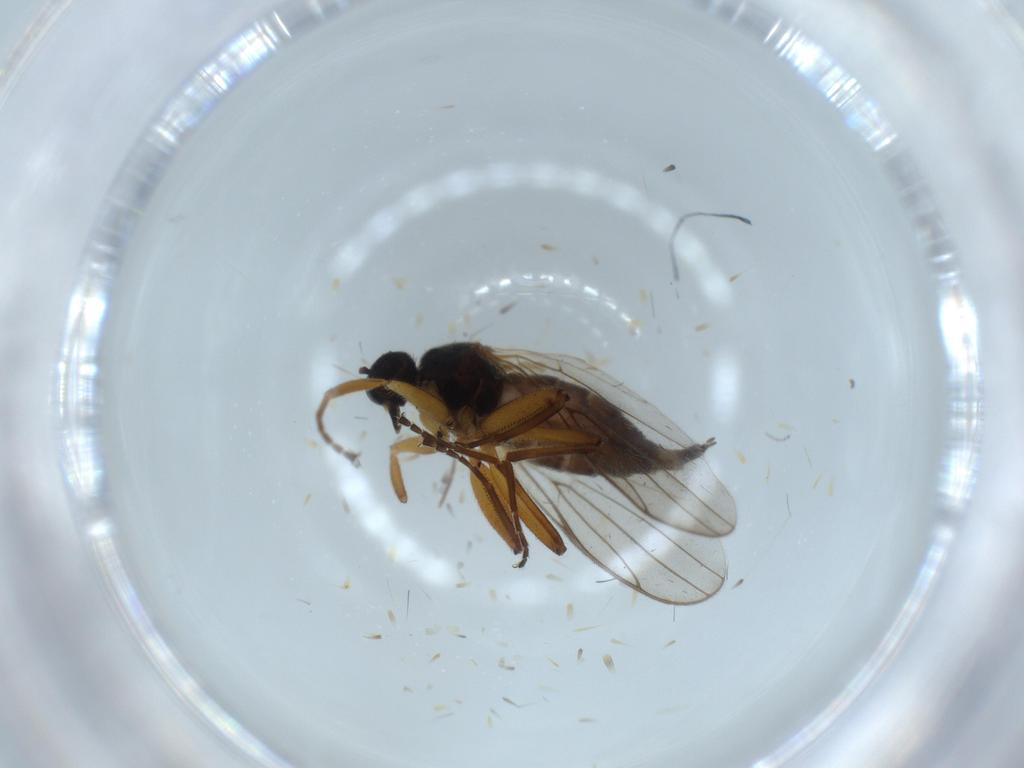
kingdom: Animalia
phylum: Arthropoda
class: Insecta
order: Diptera
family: Hybotidae
